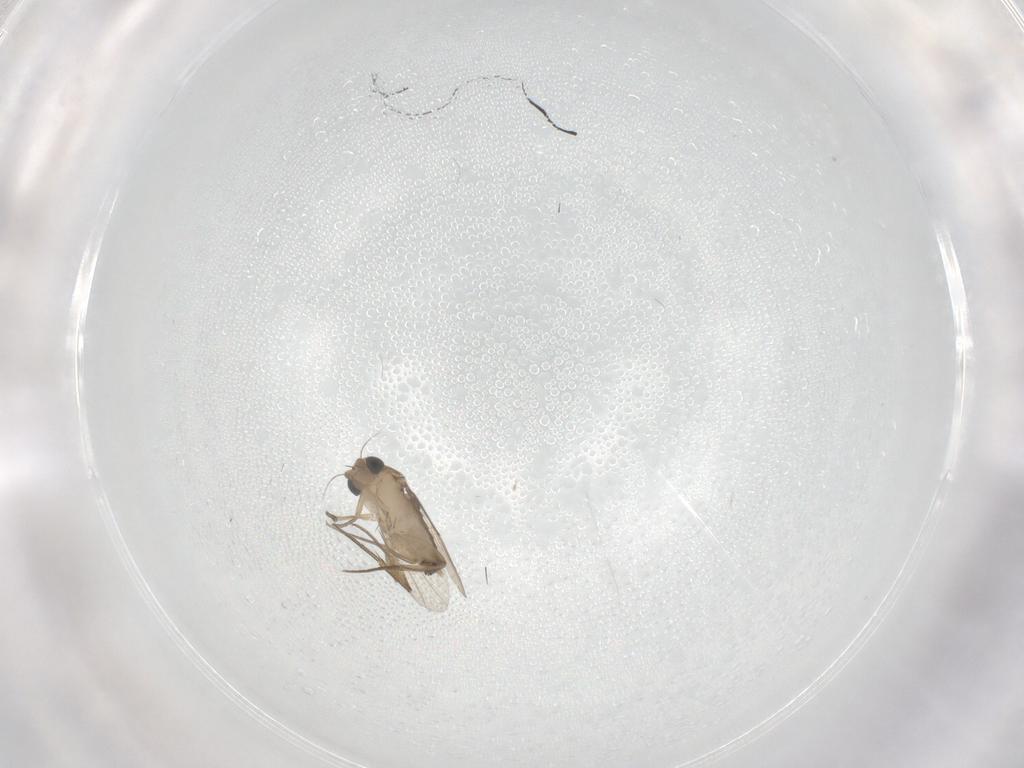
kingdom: Animalia
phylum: Arthropoda
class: Insecta
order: Diptera
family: Phoridae
